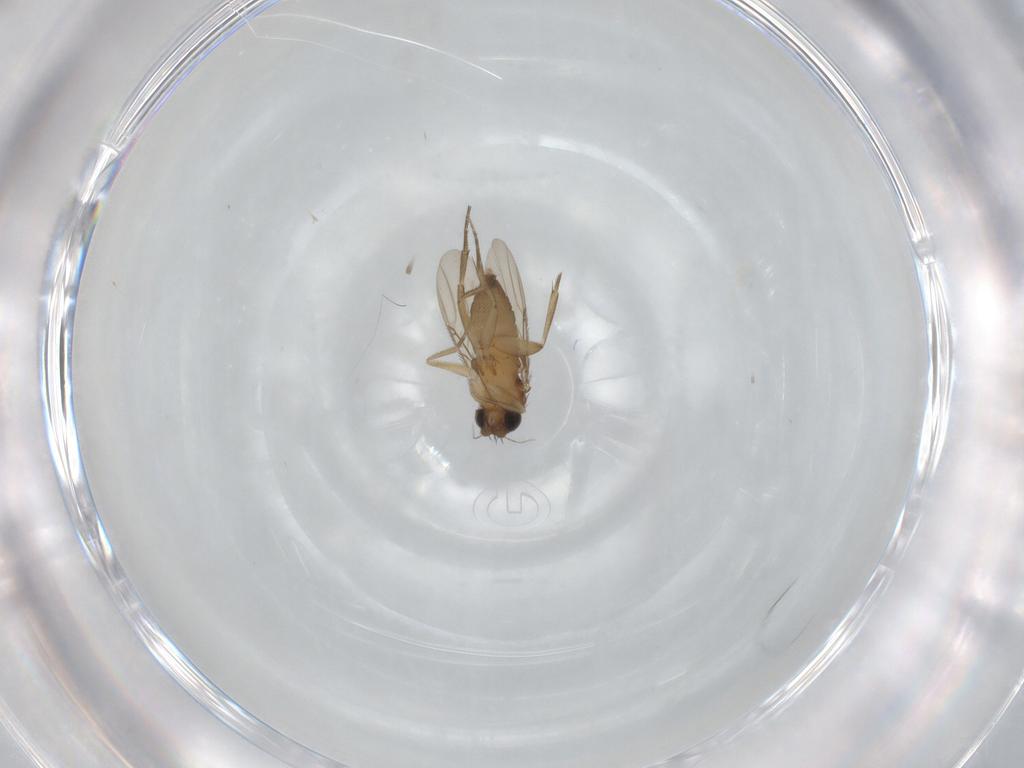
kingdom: Animalia
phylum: Arthropoda
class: Insecta
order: Diptera
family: Phoridae
